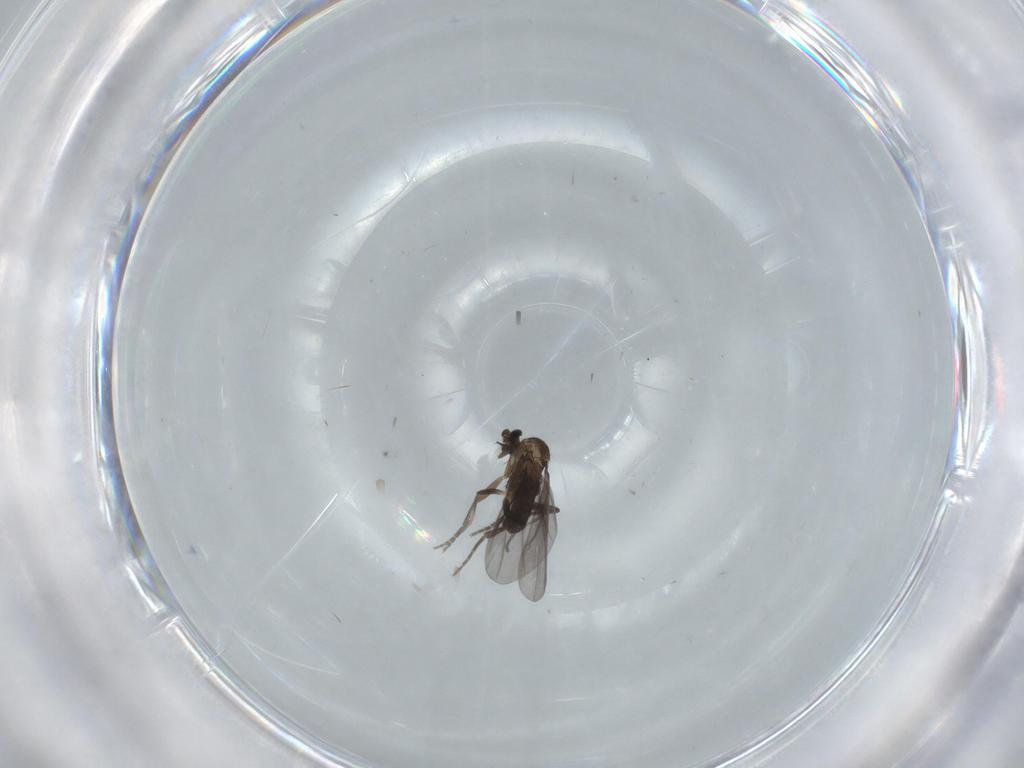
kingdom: Animalia
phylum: Arthropoda
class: Insecta
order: Diptera
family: Phoridae
